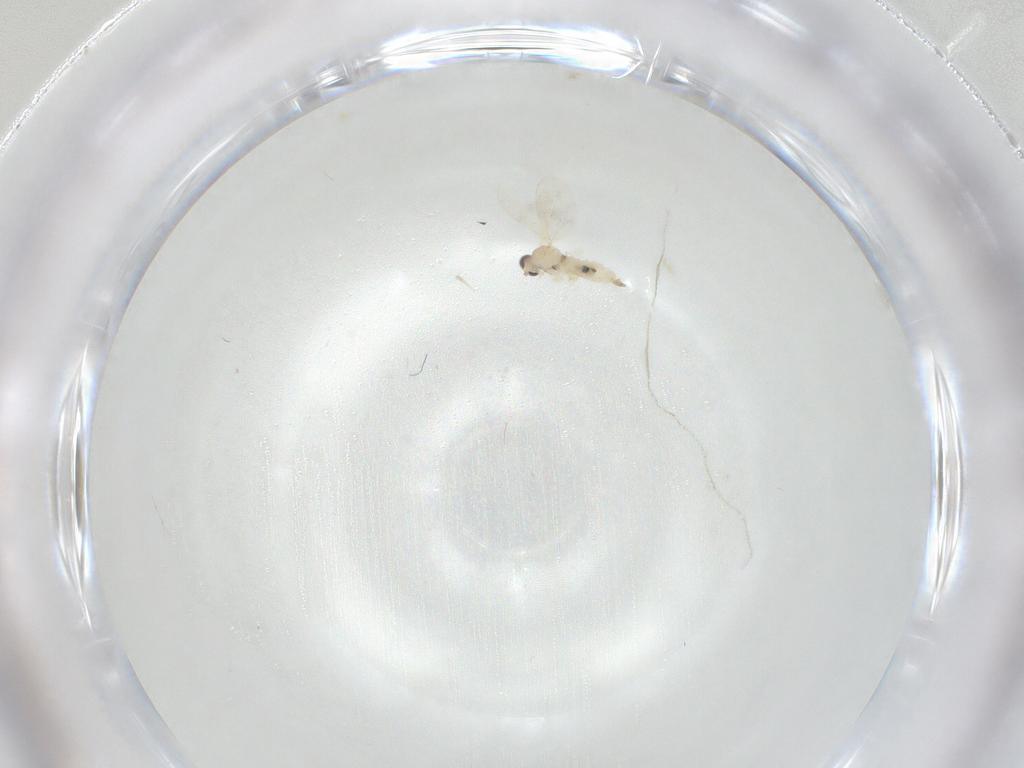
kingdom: Animalia
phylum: Arthropoda
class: Insecta
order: Diptera
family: Cecidomyiidae
